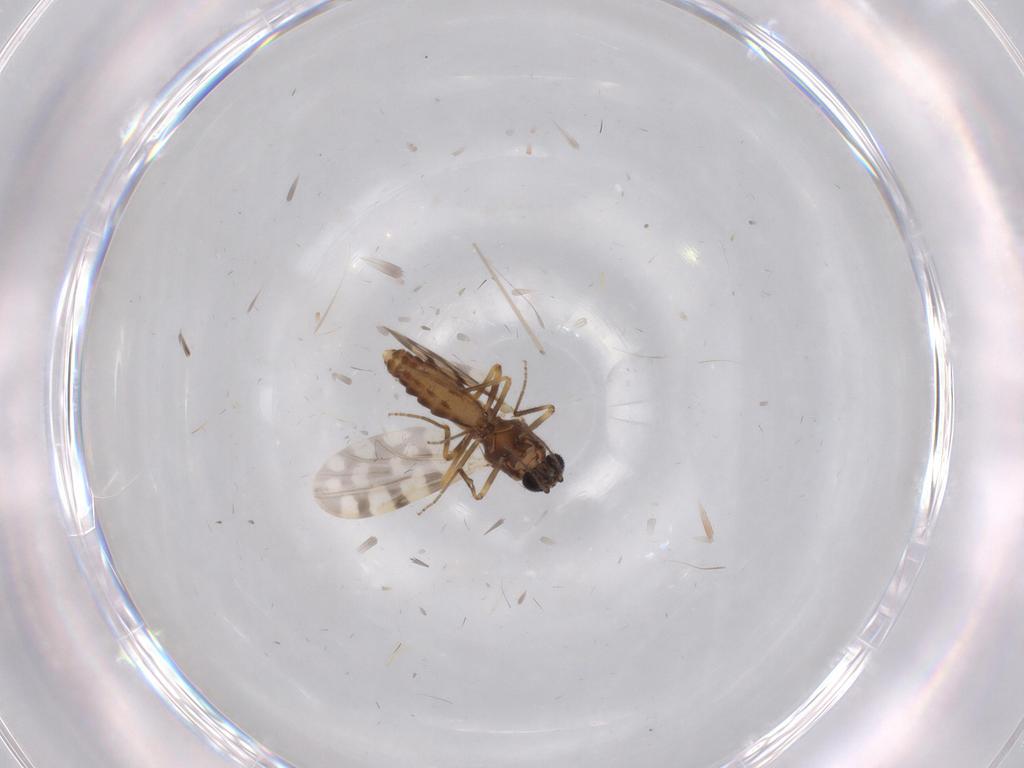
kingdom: Animalia
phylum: Arthropoda
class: Insecta
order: Diptera
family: Ceratopogonidae
